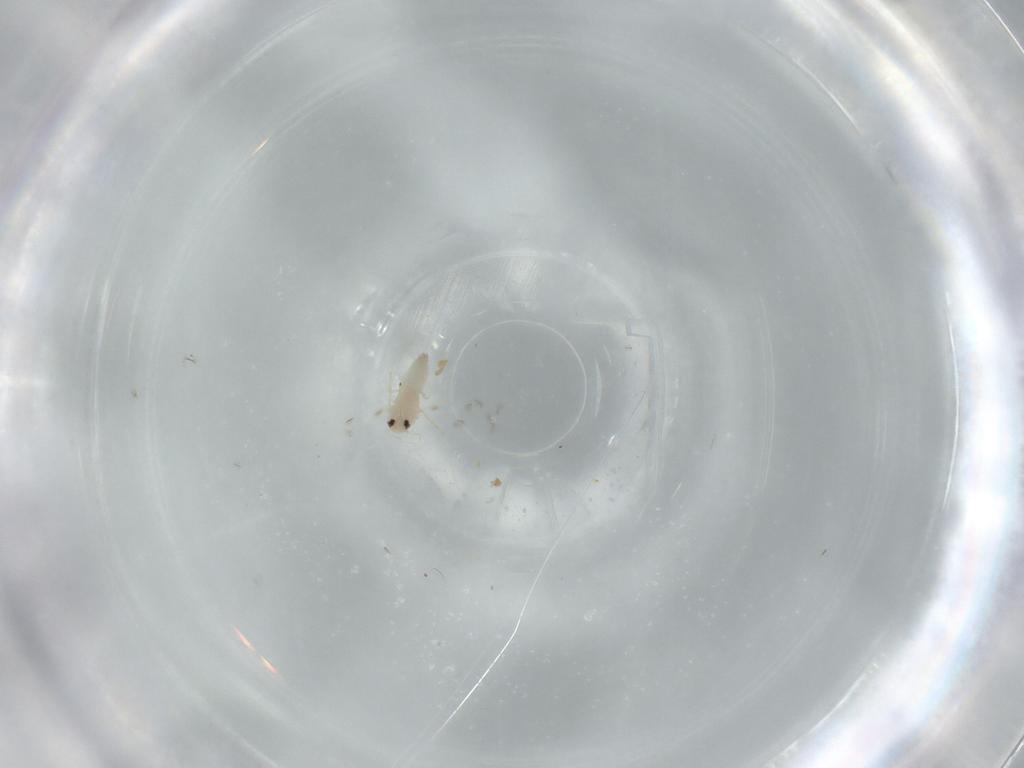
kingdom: Animalia
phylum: Arthropoda
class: Insecta
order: Hemiptera
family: Aleyrodidae
